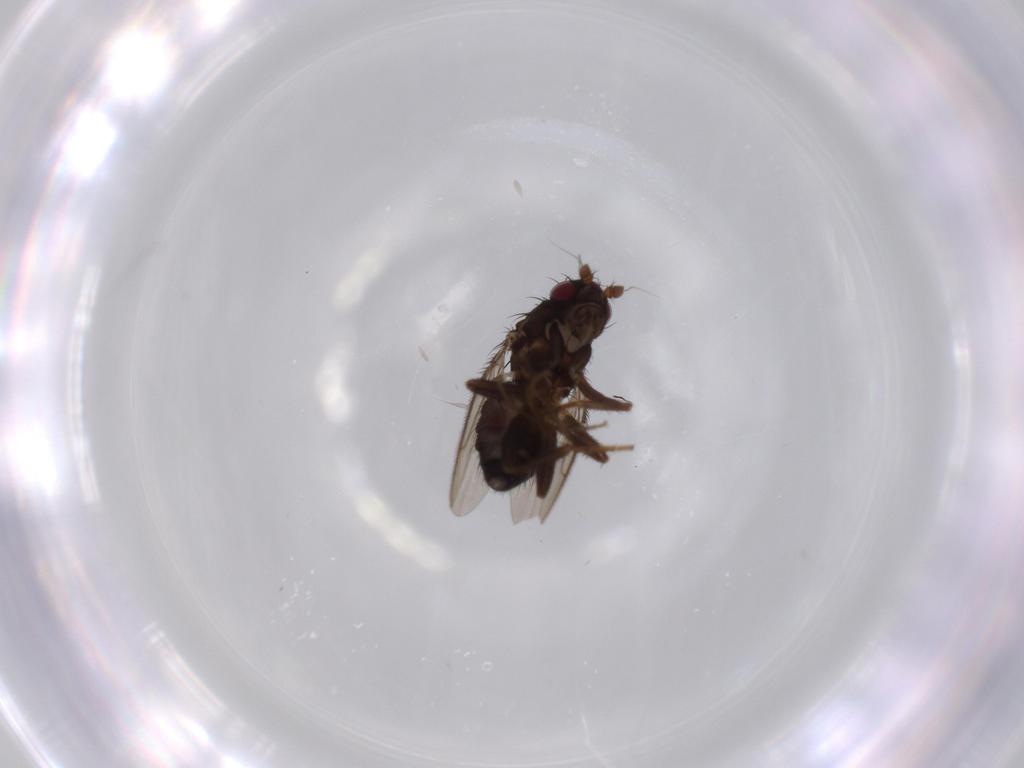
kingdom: Animalia
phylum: Arthropoda
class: Insecta
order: Diptera
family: Sphaeroceridae
